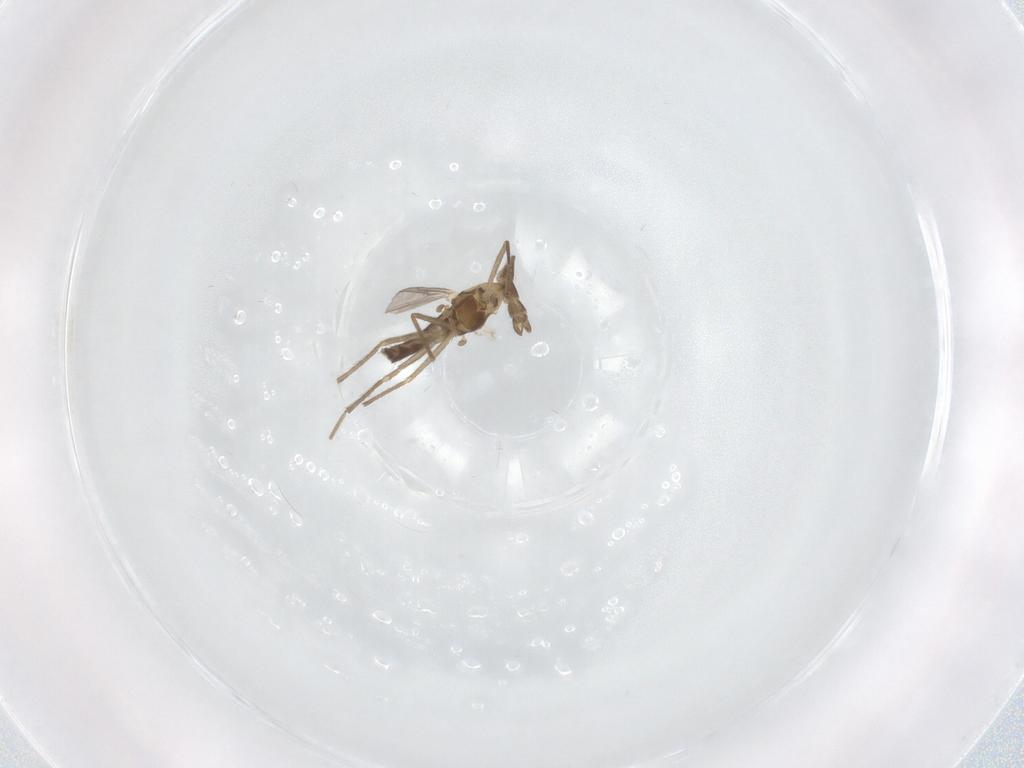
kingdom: Animalia
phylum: Arthropoda
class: Insecta
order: Diptera
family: Chironomidae
